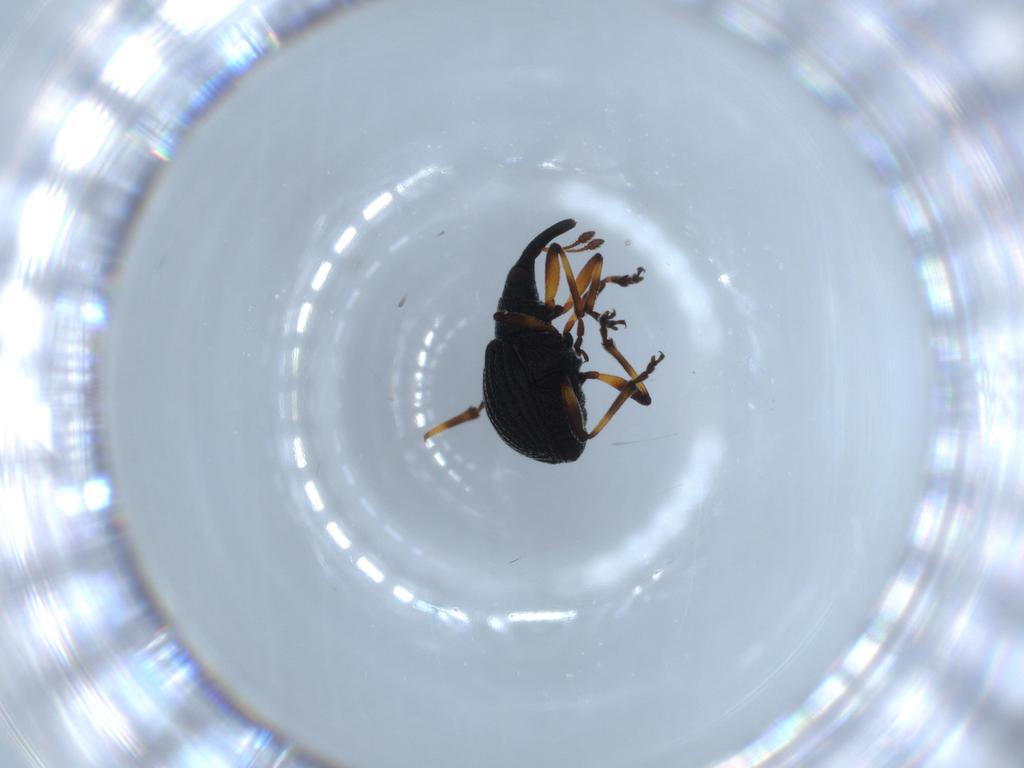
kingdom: Animalia
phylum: Arthropoda
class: Insecta
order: Coleoptera
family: Brentidae
